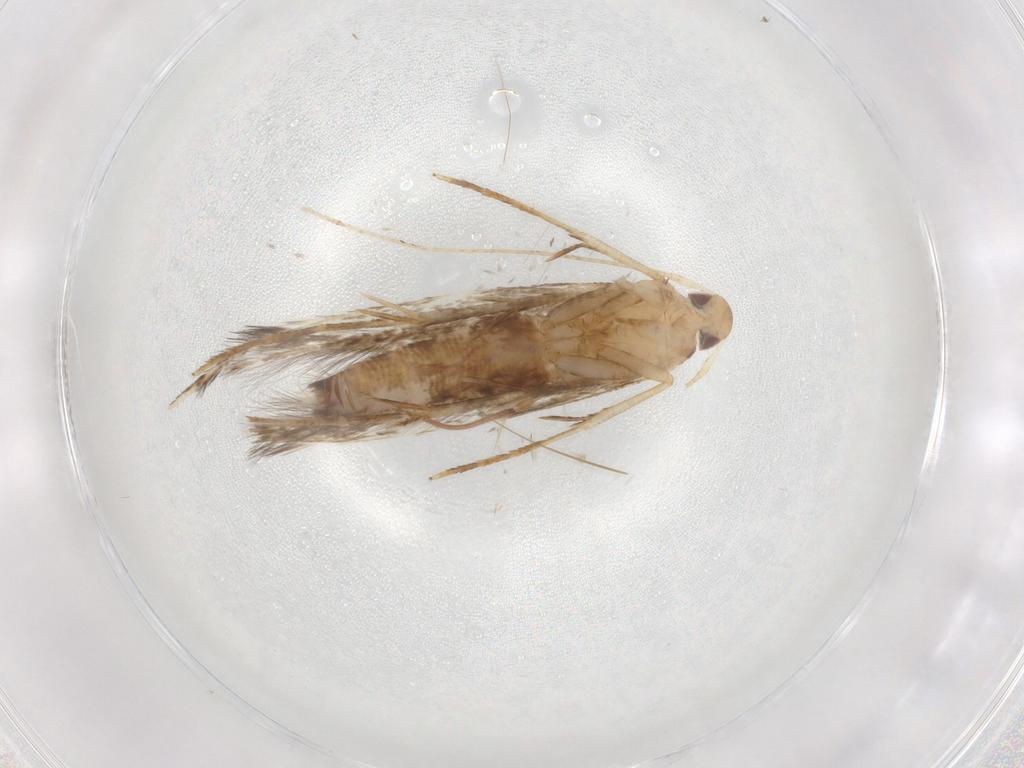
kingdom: Animalia
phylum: Arthropoda
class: Insecta
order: Lepidoptera
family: Cosmopterigidae
